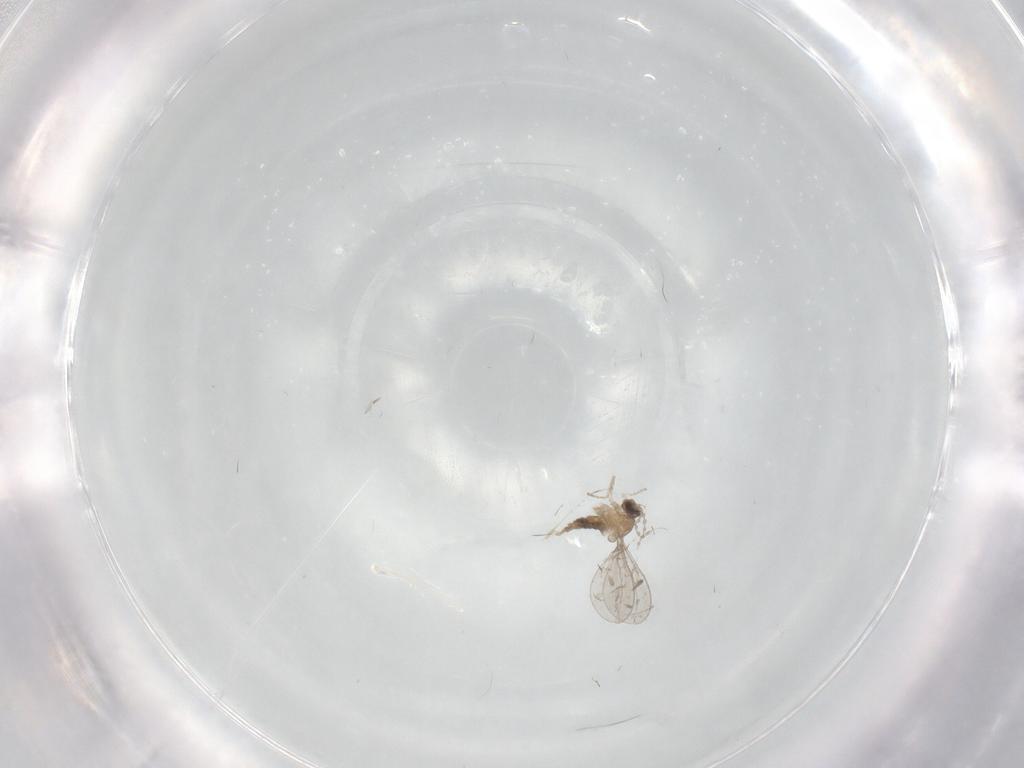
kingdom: Animalia
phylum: Arthropoda
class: Insecta
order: Diptera
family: Cecidomyiidae
